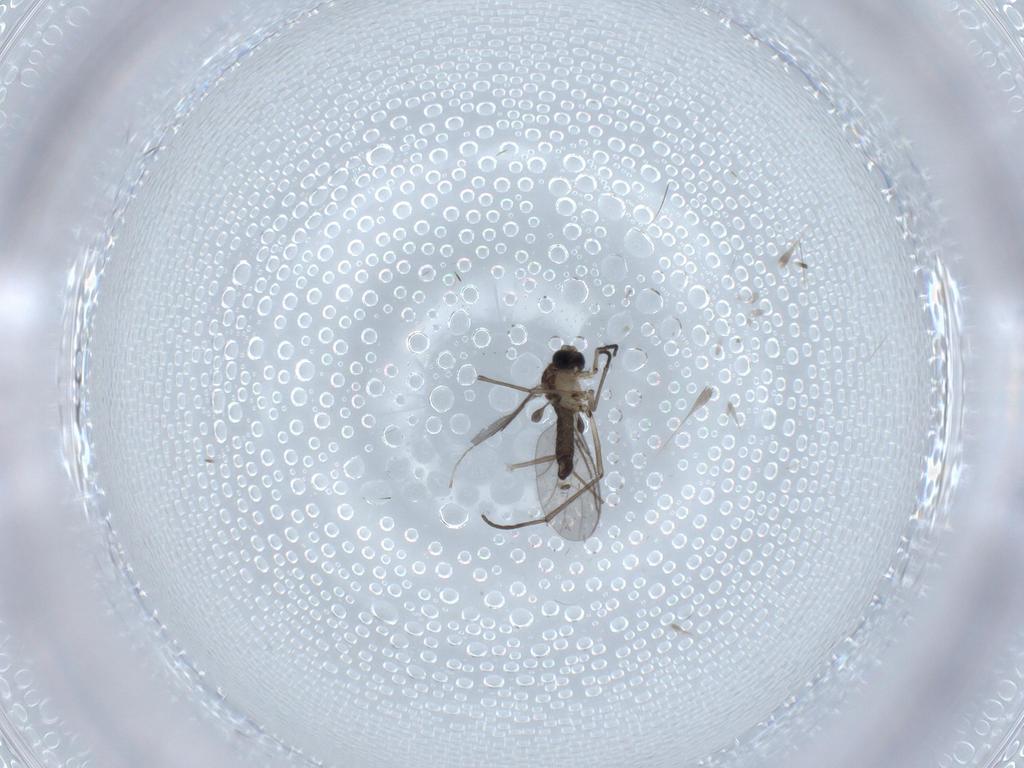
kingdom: Animalia
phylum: Arthropoda
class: Insecta
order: Diptera
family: Sciaridae
